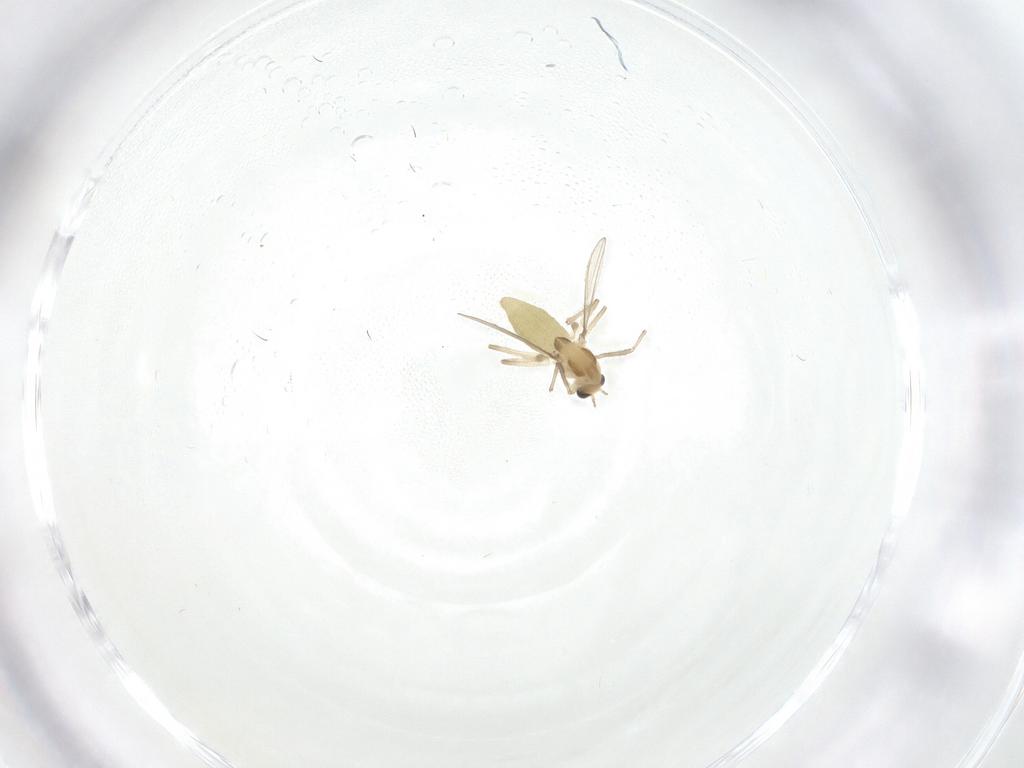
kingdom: Animalia
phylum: Arthropoda
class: Insecta
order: Diptera
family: Chironomidae
